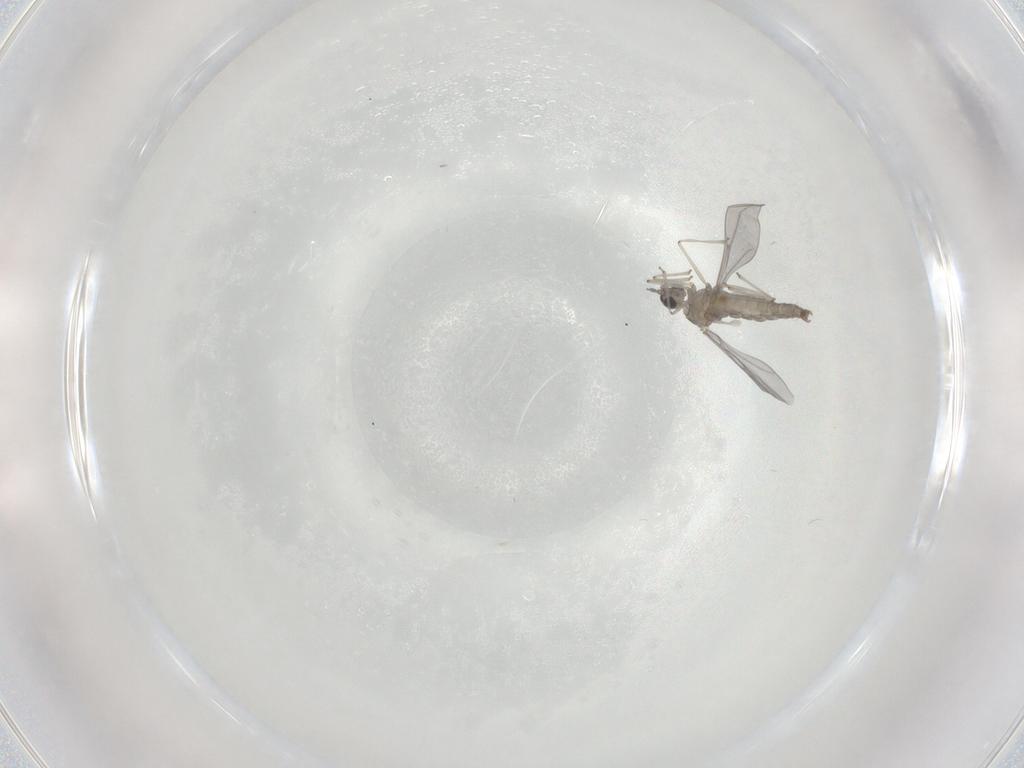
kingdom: Animalia
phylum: Arthropoda
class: Insecta
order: Diptera
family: Cecidomyiidae
